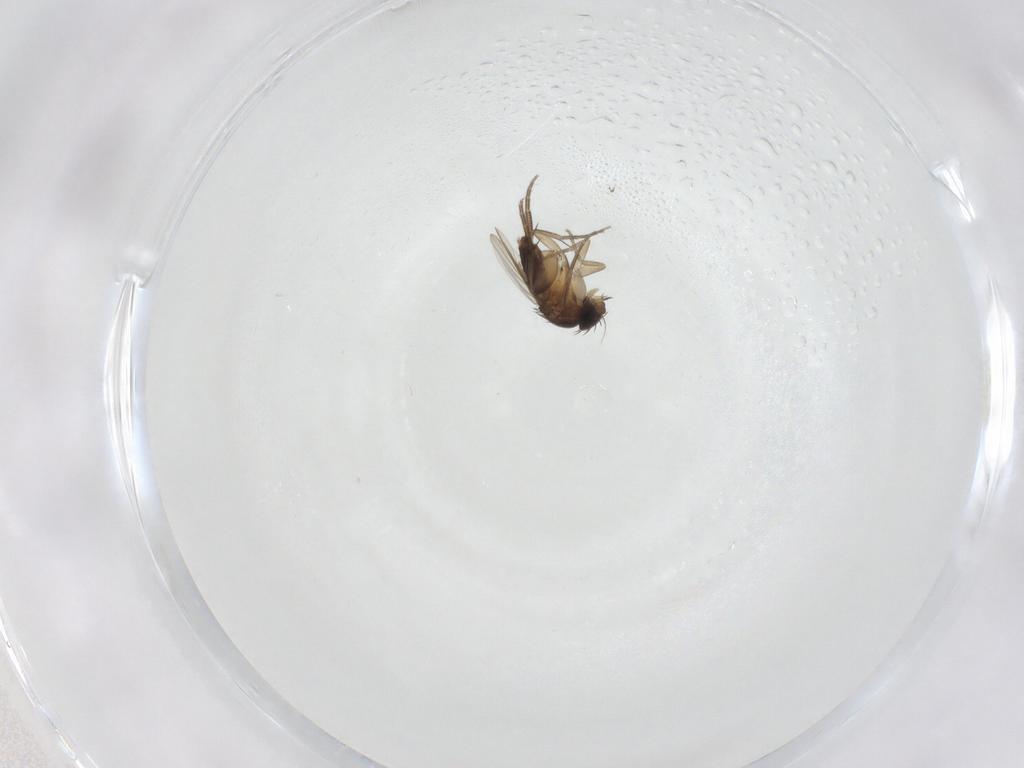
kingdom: Animalia
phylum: Arthropoda
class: Insecta
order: Diptera
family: Phoridae
